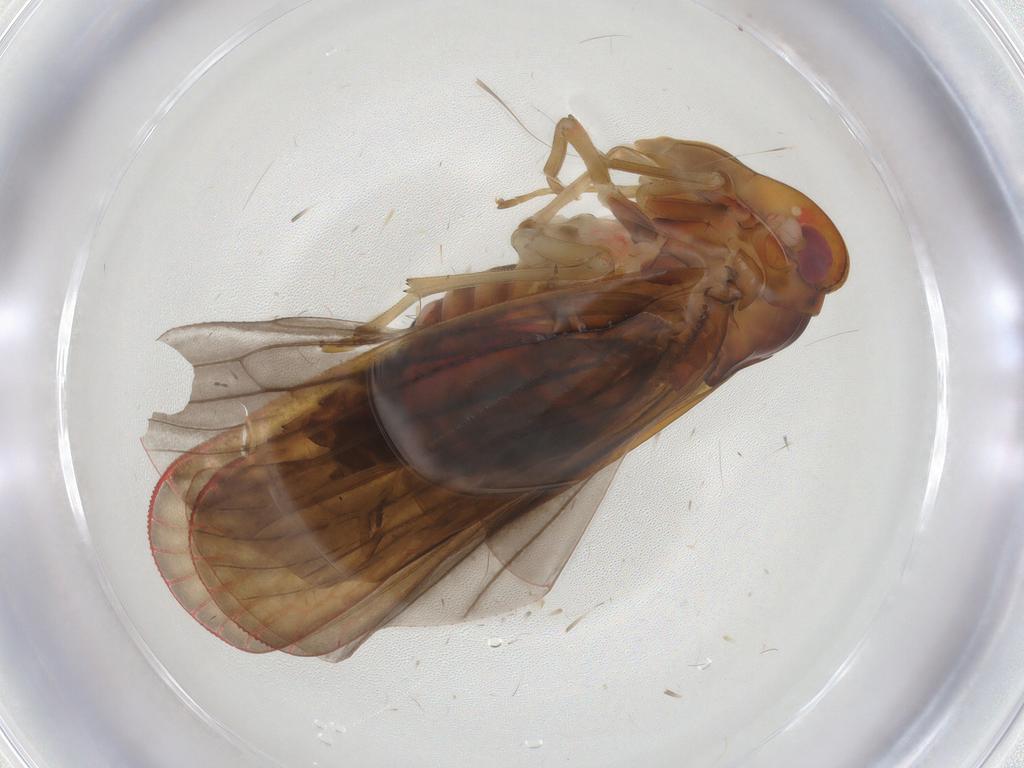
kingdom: Animalia
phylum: Arthropoda
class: Insecta
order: Hemiptera
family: Derbidae
